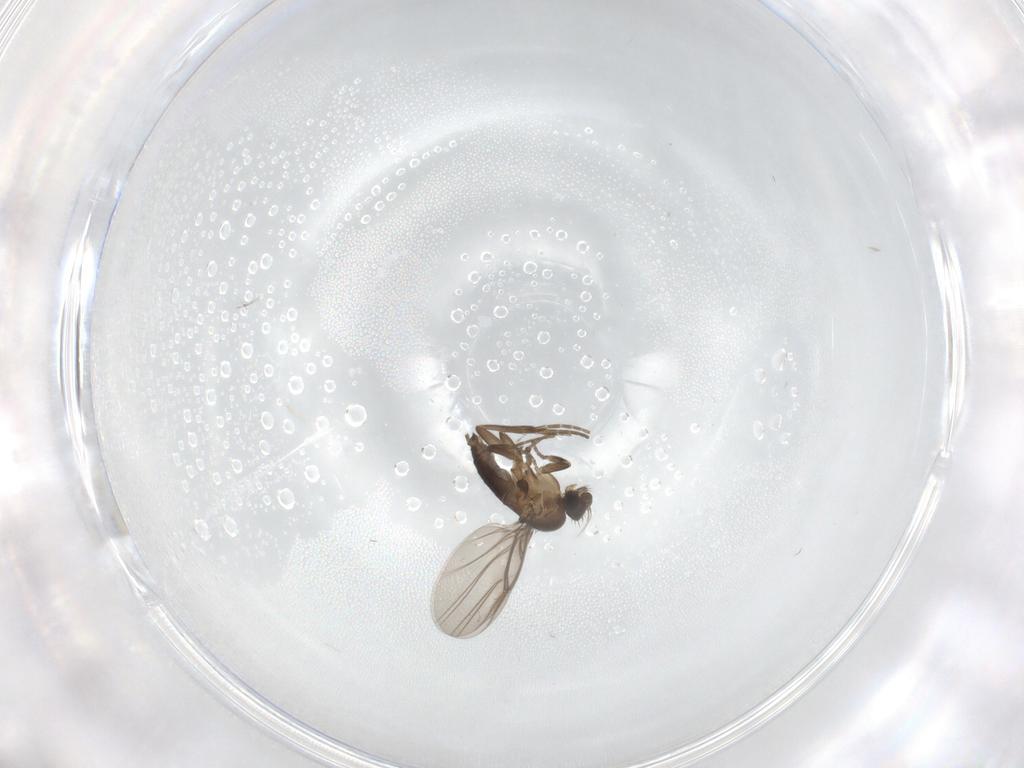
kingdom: Animalia
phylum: Arthropoda
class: Insecta
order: Diptera
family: Phoridae
